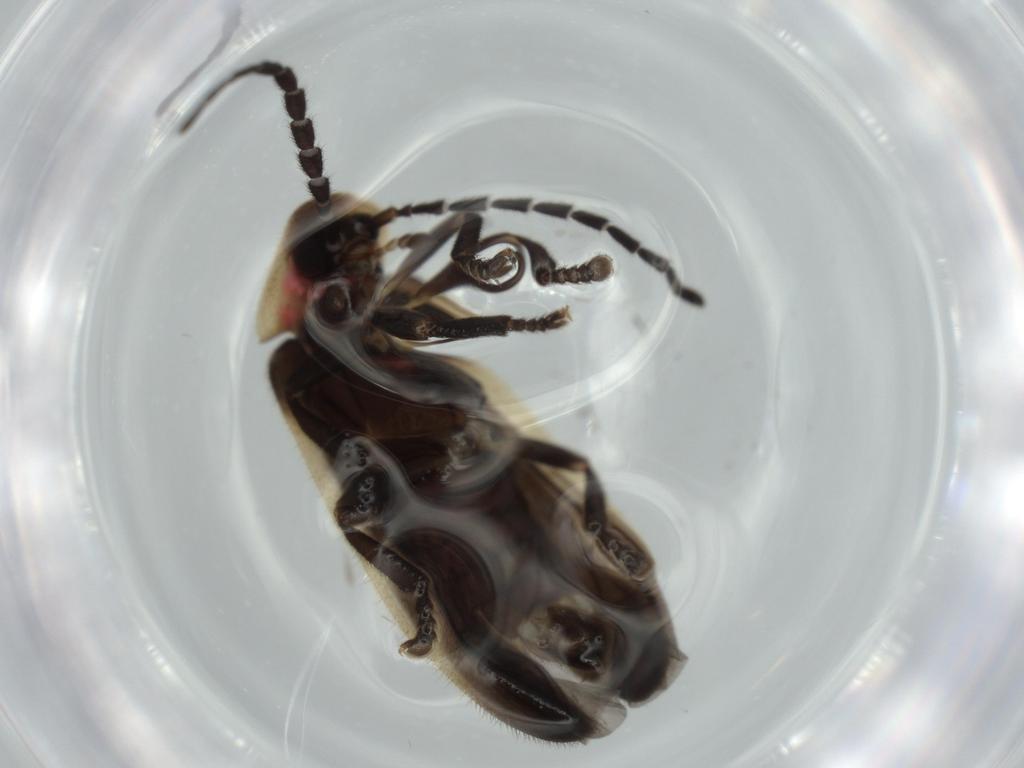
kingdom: Animalia
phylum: Arthropoda
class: Insecta
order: Coleoptera
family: Lampyridae
